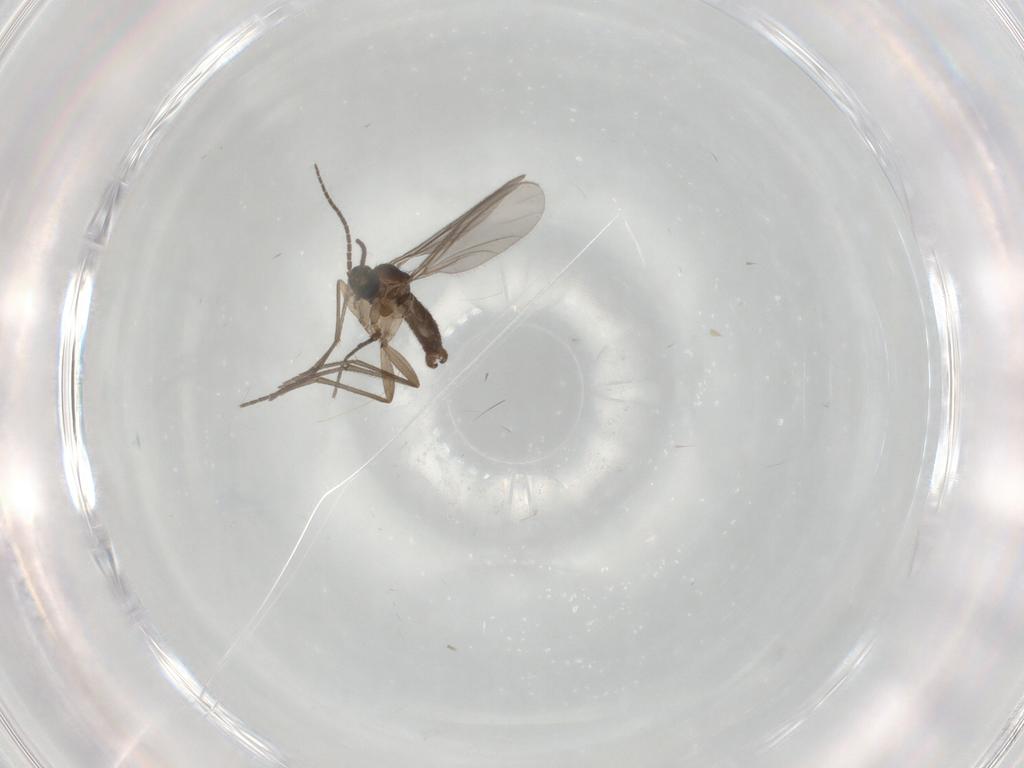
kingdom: Animalia
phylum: Arthropoda
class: Insecta
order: Diptera
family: Sciaridae
